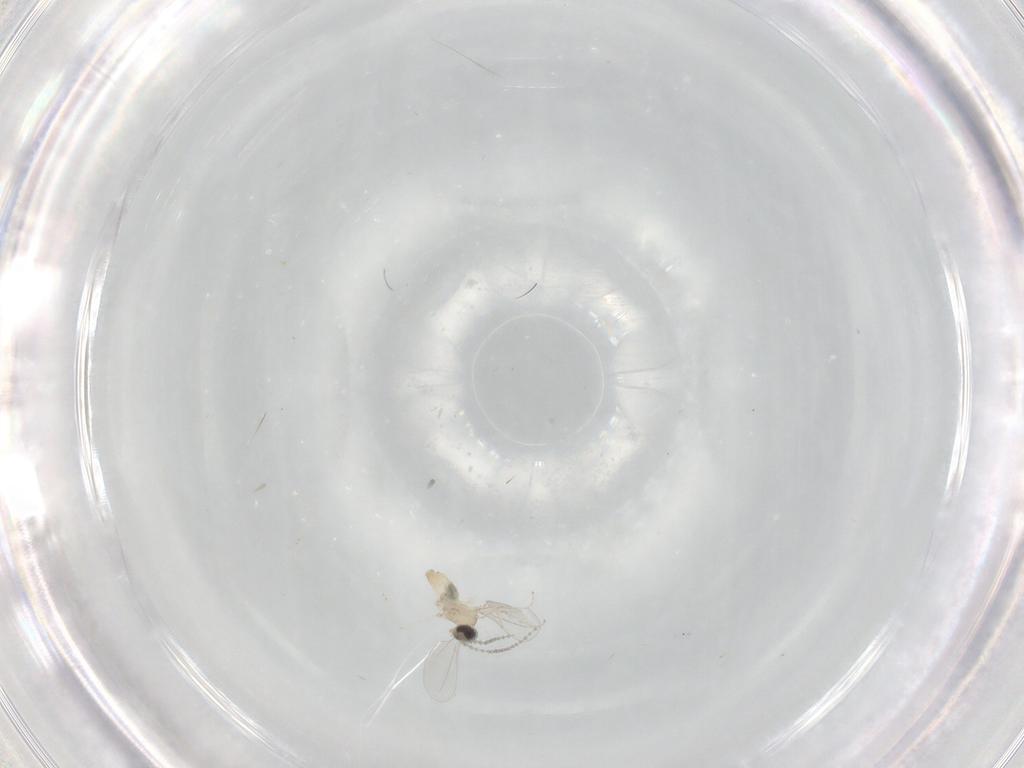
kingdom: Animalia
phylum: Arthropoda
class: Insecta
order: Diptera
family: Cecidomyiidae
